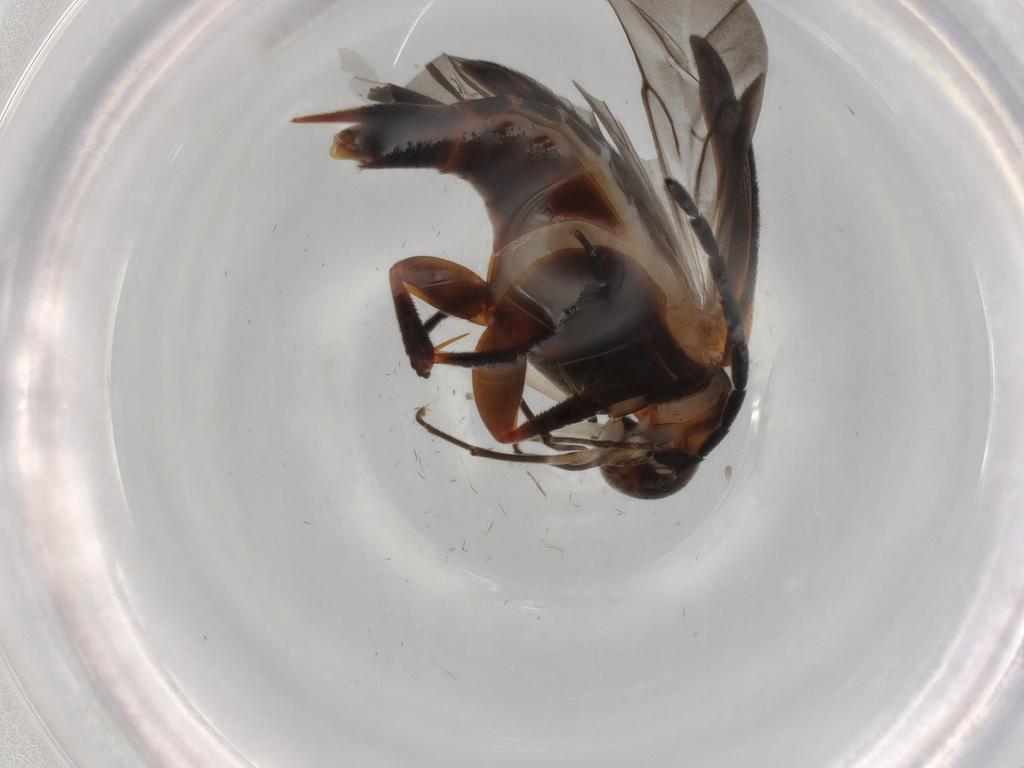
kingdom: Animalia
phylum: Arthropoda
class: Insecta
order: Coleoptera
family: Mordellidae
